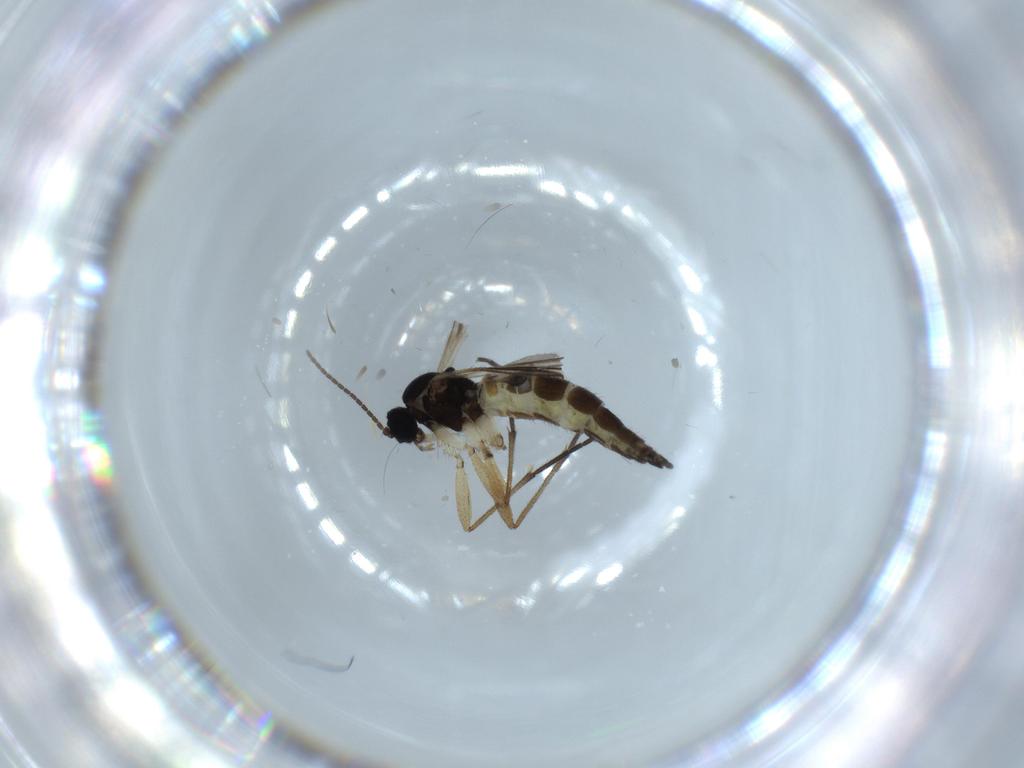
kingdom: Animalia
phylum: Arthropoda
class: Insecta
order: Diptera
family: Sciaridae
